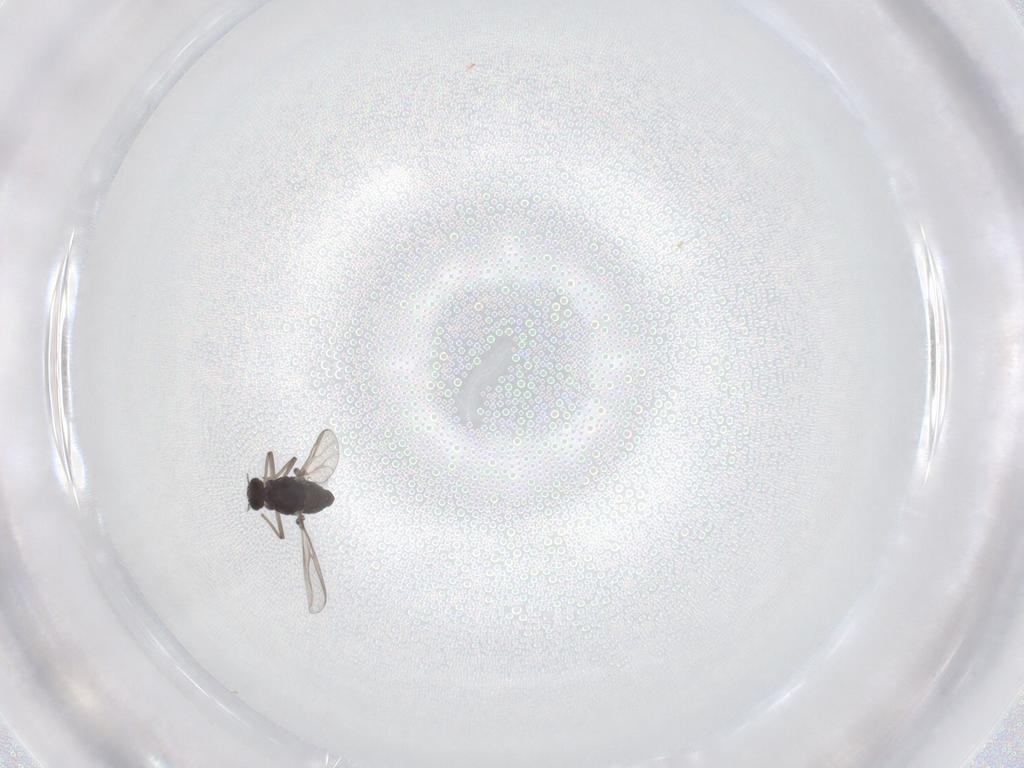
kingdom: Animalia
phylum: Arthropoda
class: Insecta
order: Diptera
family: Chironomidae
